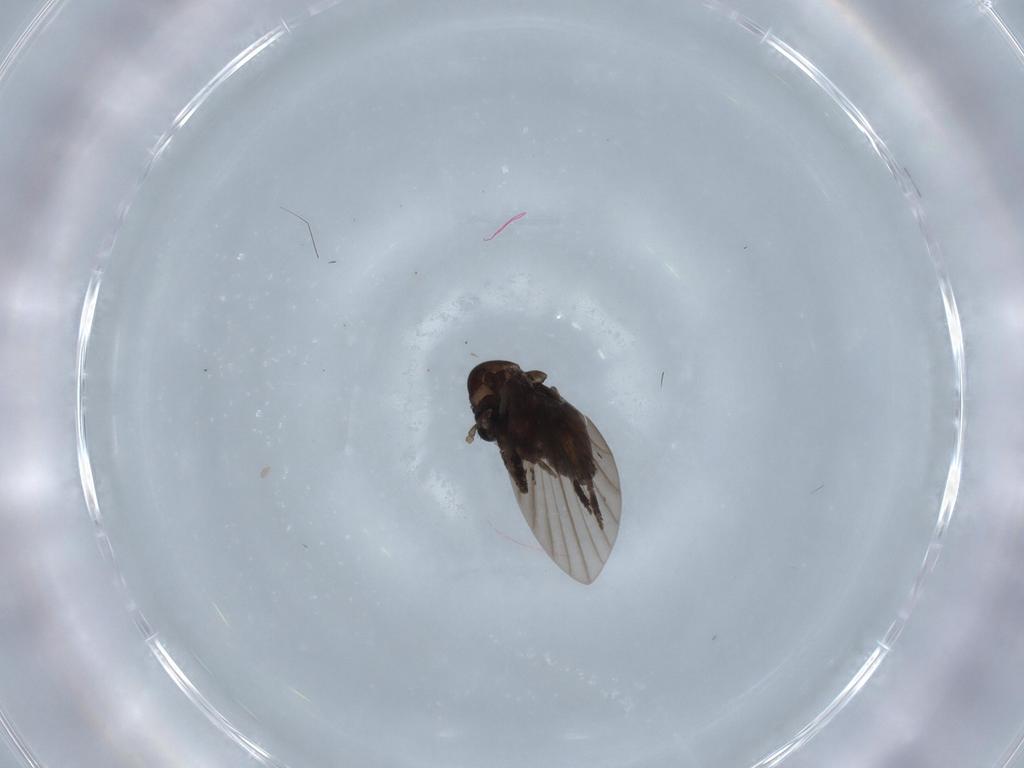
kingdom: Animalia
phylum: Arthropoda
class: Insecta
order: Diptera
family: Psychodidae
